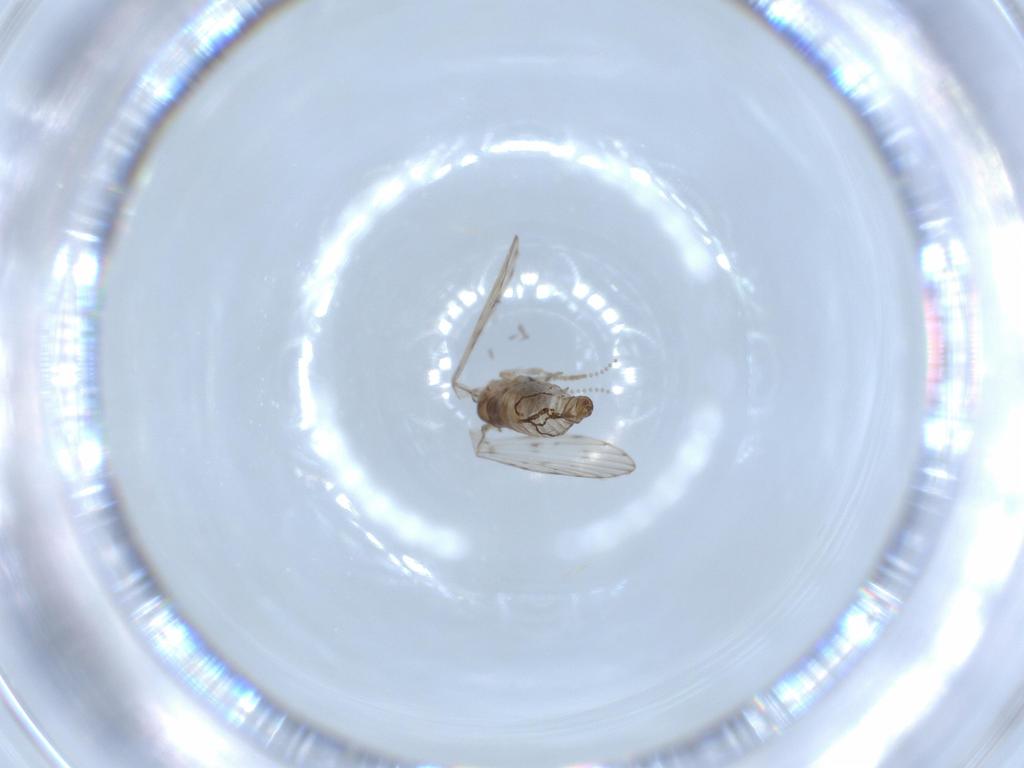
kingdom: Animalia
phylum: Arthropoda
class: Insecta
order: Diptera
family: Psychodidae
